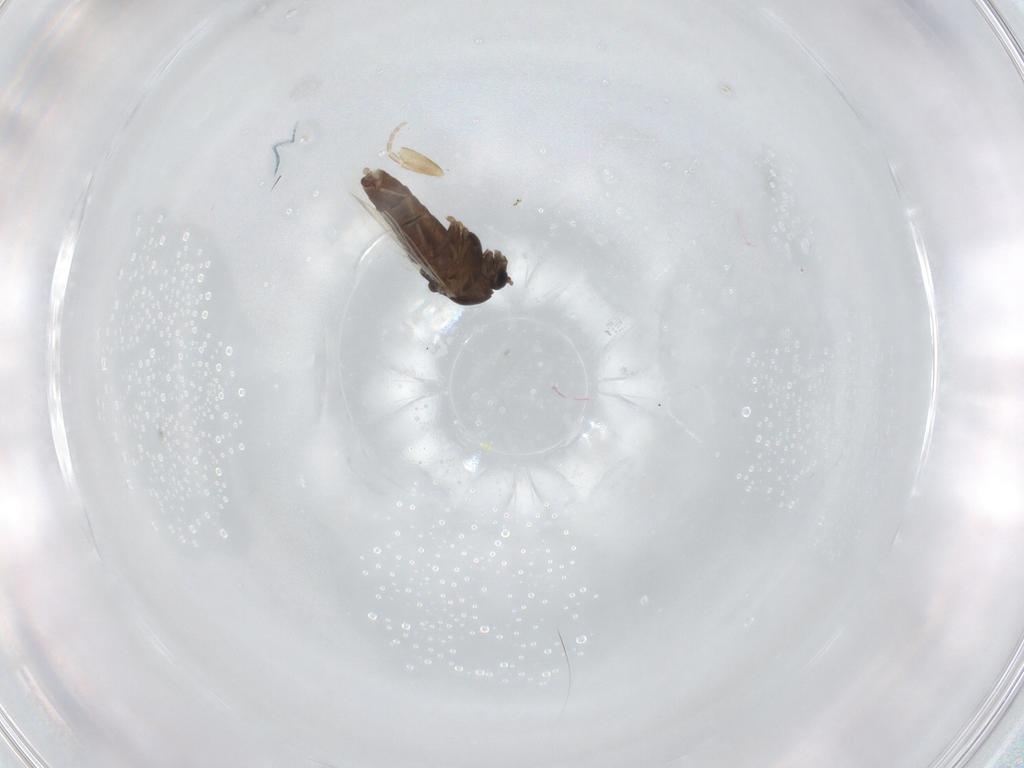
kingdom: Animalia
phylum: Arthropoda
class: Insecta
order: Diptera
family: Chironomidae
